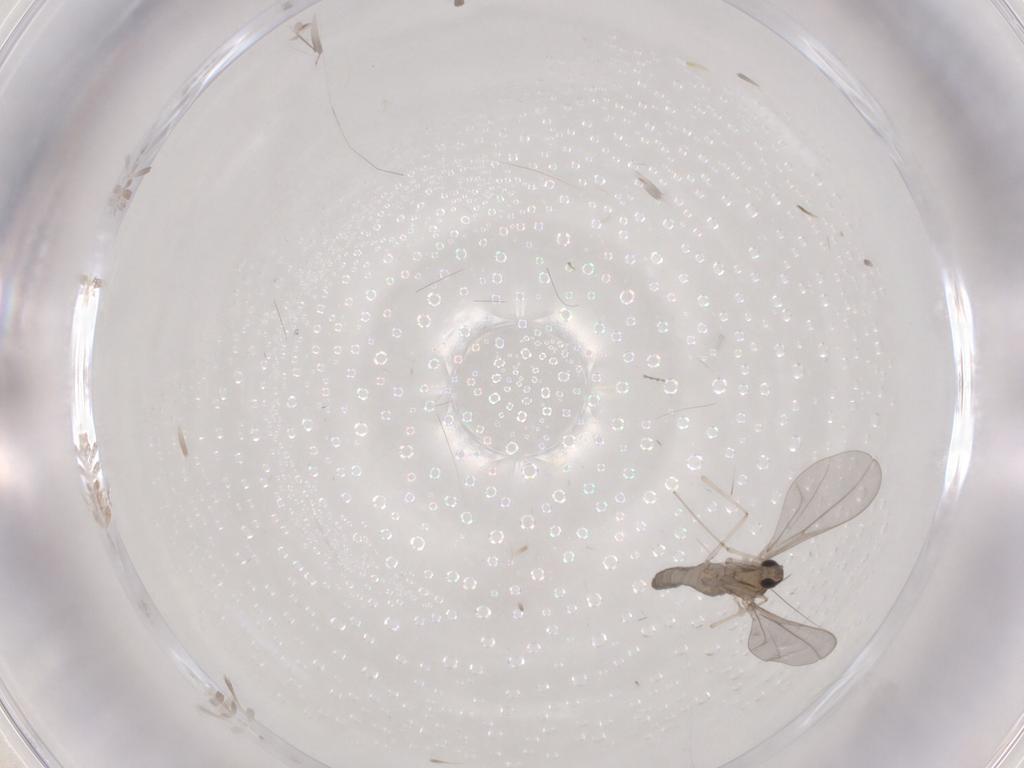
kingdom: Animalia
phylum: Arthropoda
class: Insecta
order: Diptera
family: Cecidomyiidae
